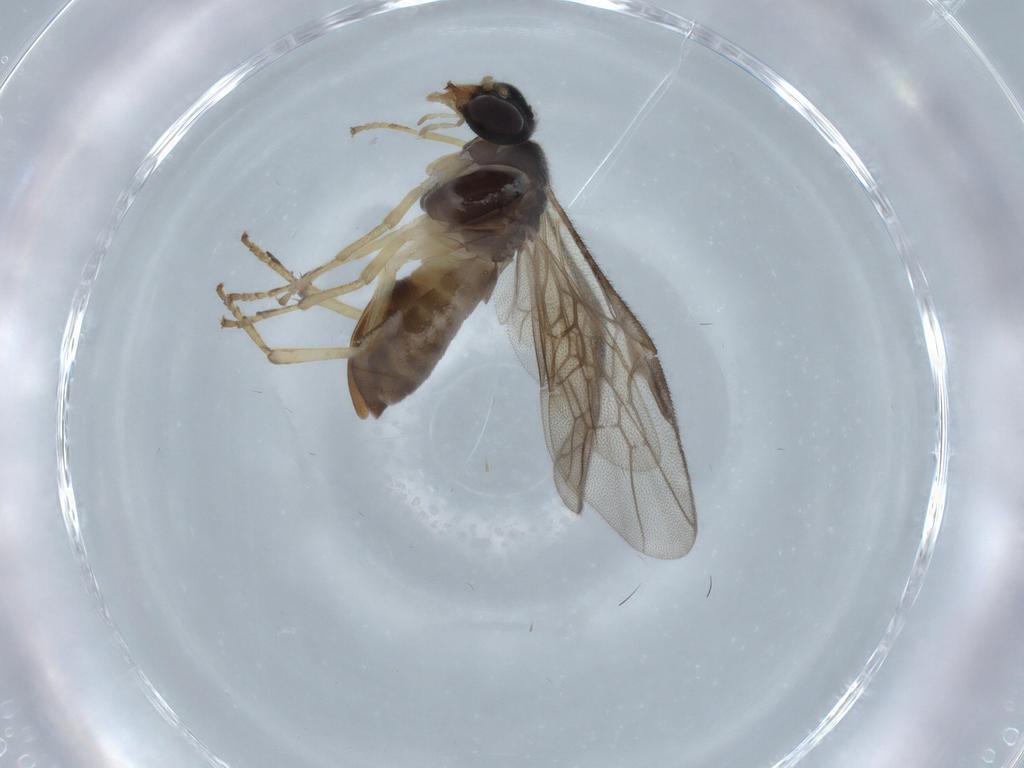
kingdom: Animalia
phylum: Arthropoda
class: Insecta
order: Hymenoptera
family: Pergidae
